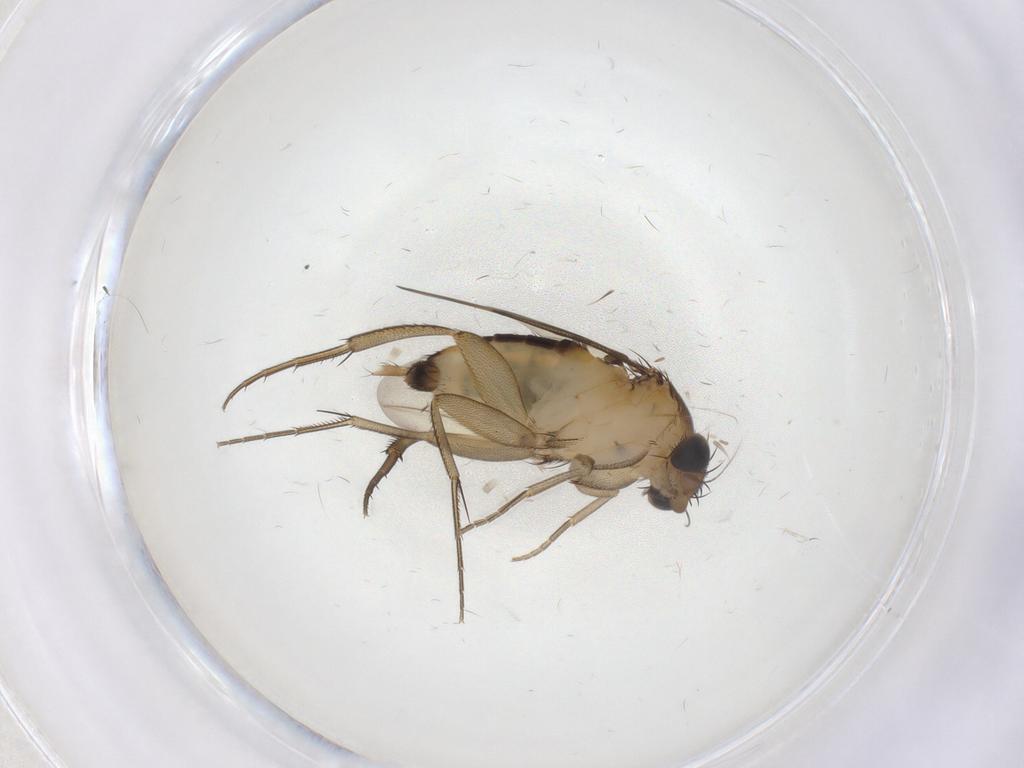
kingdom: Animalia
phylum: Arthropoda
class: Insecta
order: Diptera
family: Phoridae
